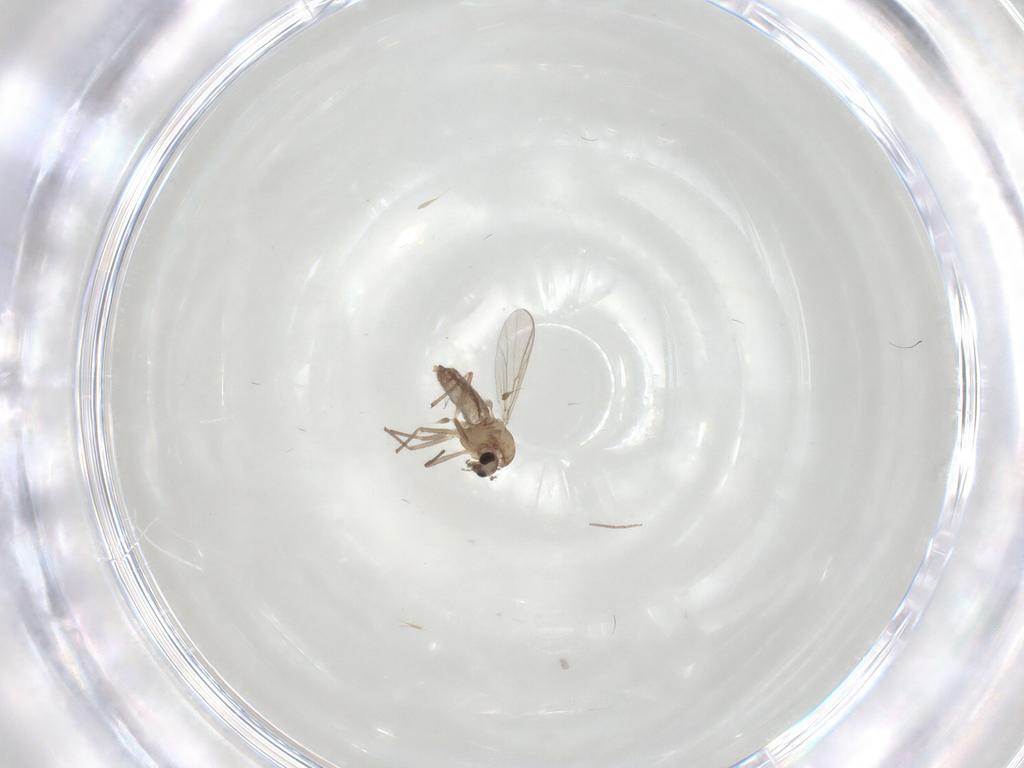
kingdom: Animalia
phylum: Arthropoda
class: Insecta
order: Diptera
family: Chironomidae
